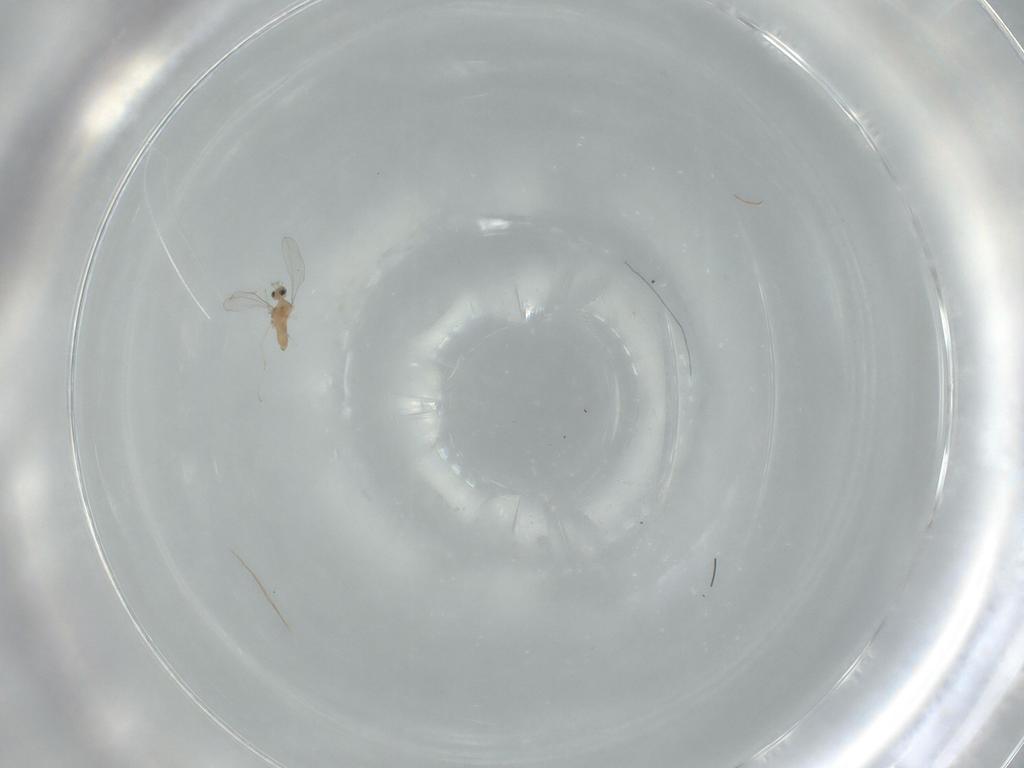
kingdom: Animalia
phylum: Arthropoda
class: Insecta
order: Diptera
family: Cecidomyiidae
